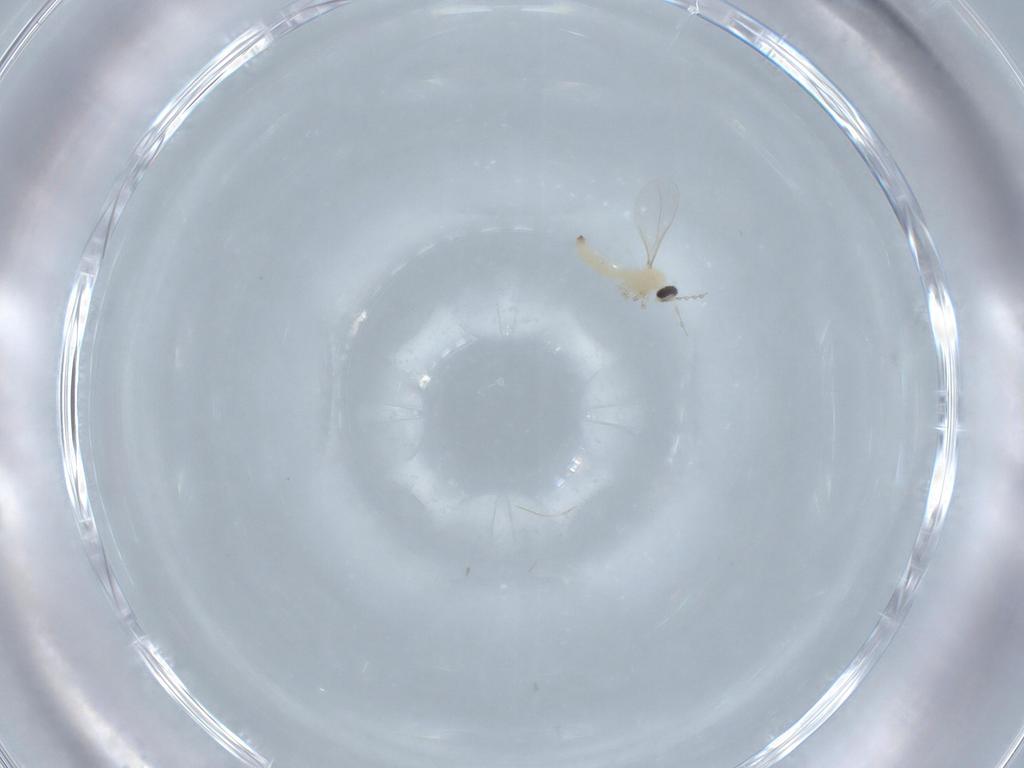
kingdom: Animalia
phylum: Arthropoda
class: Insecta
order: Diptera
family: Cecidomyiidae
